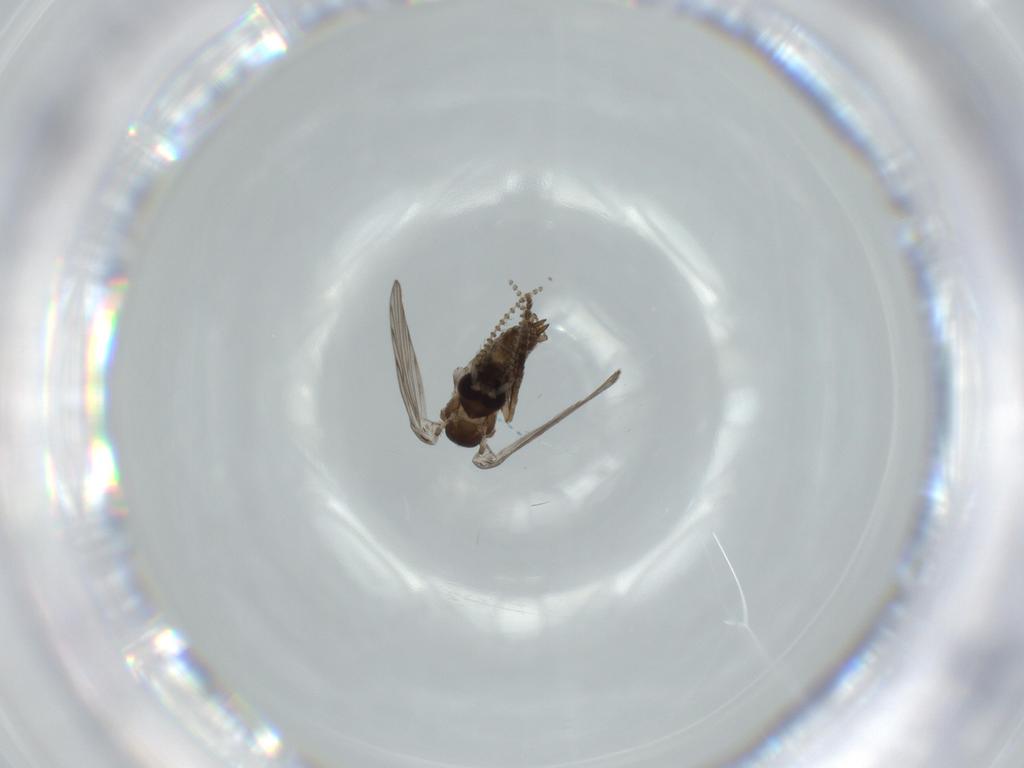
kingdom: Animalia
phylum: Arthropoda
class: Insecta
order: Diptera
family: Psychodidae
